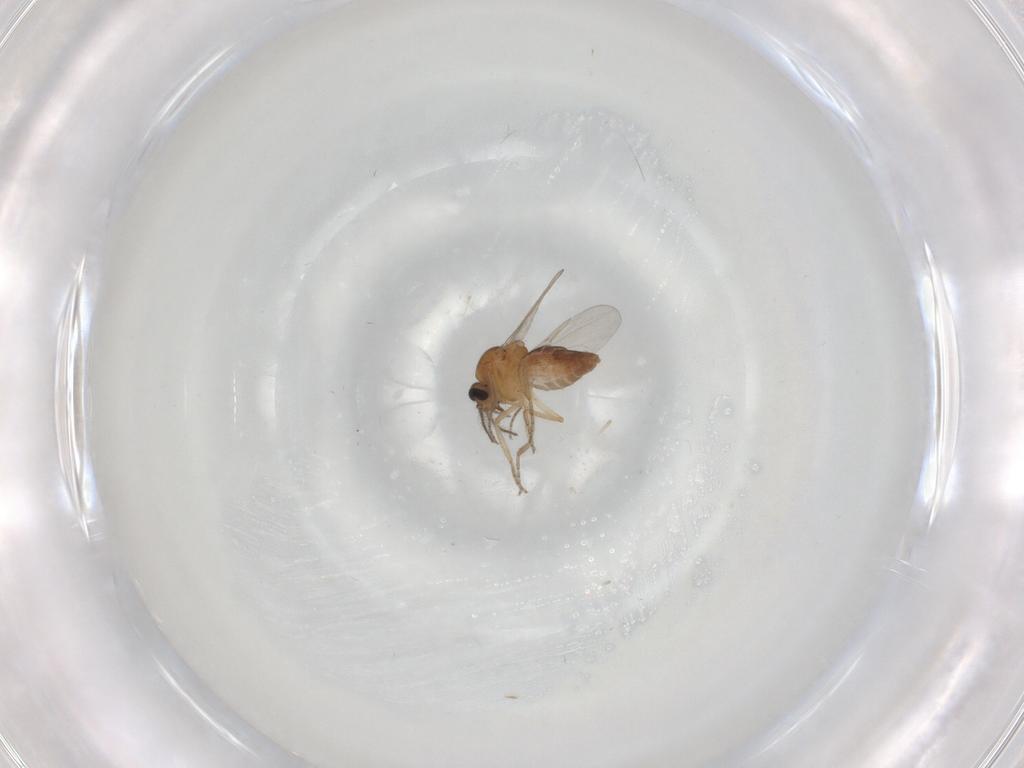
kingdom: Animalia
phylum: Arthropoda
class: Insecta
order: Diptera
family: Ceratopogonidae
